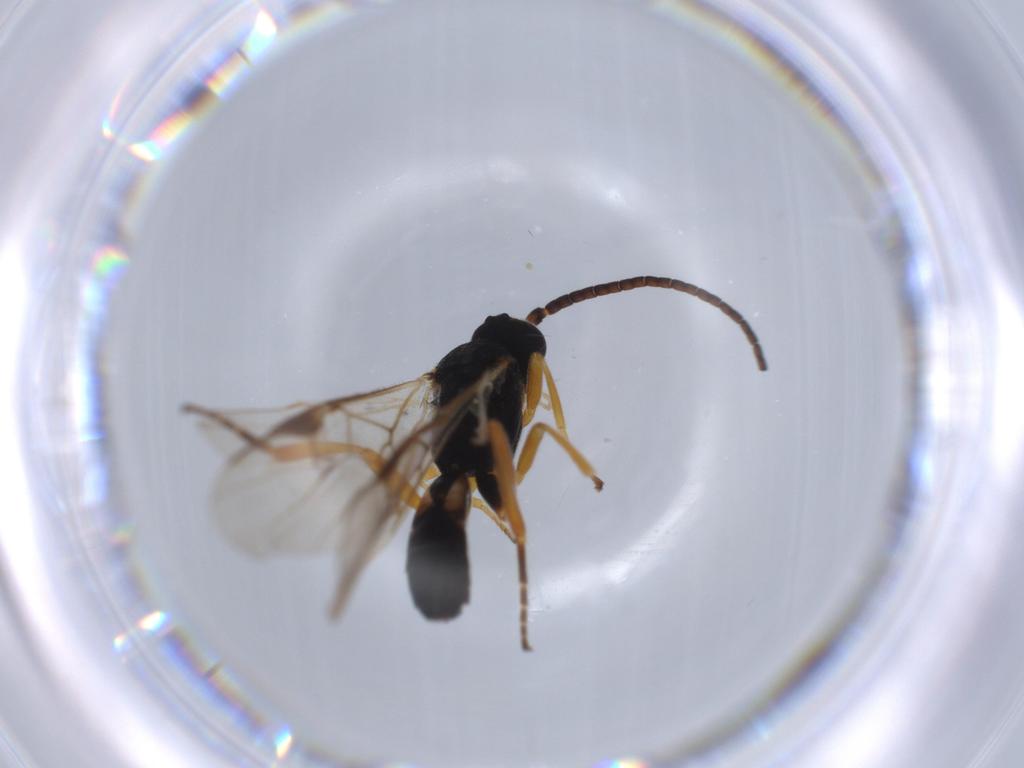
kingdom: Animalia
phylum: Arthropoda
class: Insecta
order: Hymenoptera
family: Braconidae
